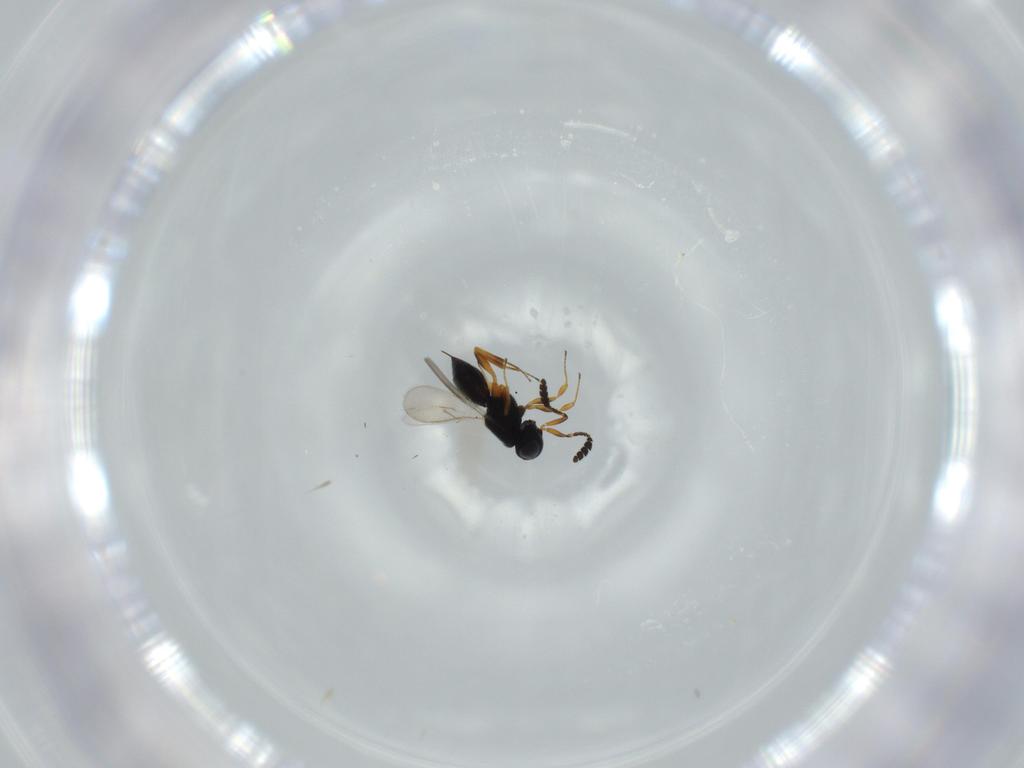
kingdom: Animalia
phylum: Arthropoda
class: Insecta
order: Hymenoptera
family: Scelionidae
